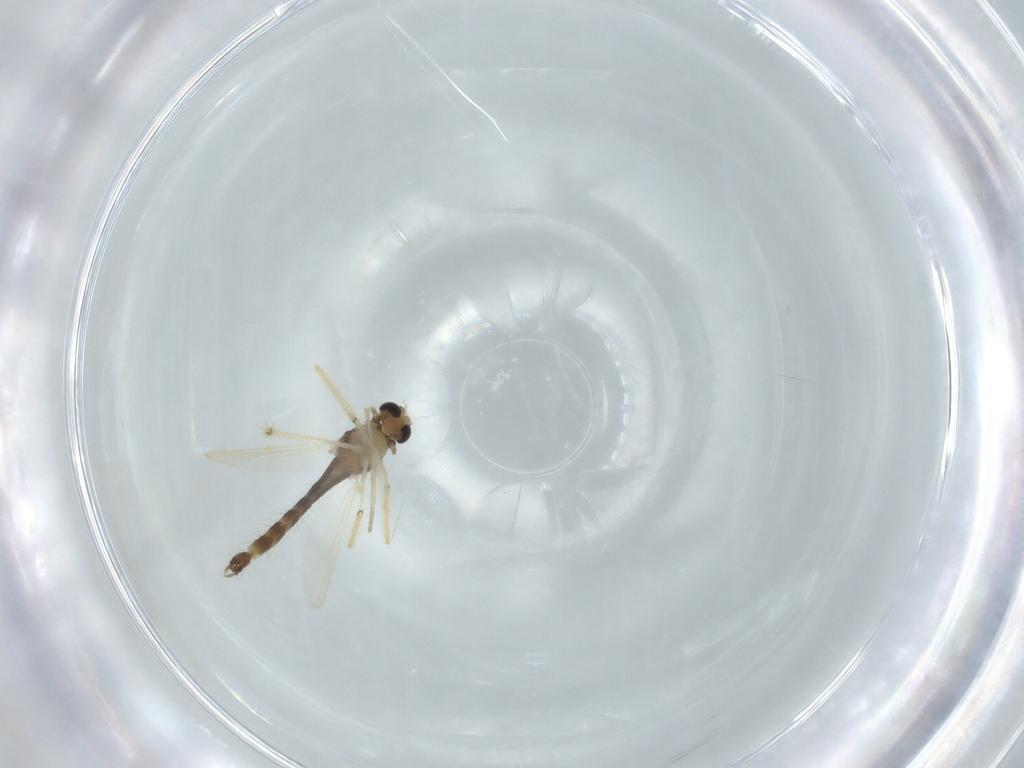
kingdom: Animalia
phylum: Arthropoda
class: Insecta
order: Diptera
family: Chironomidae
